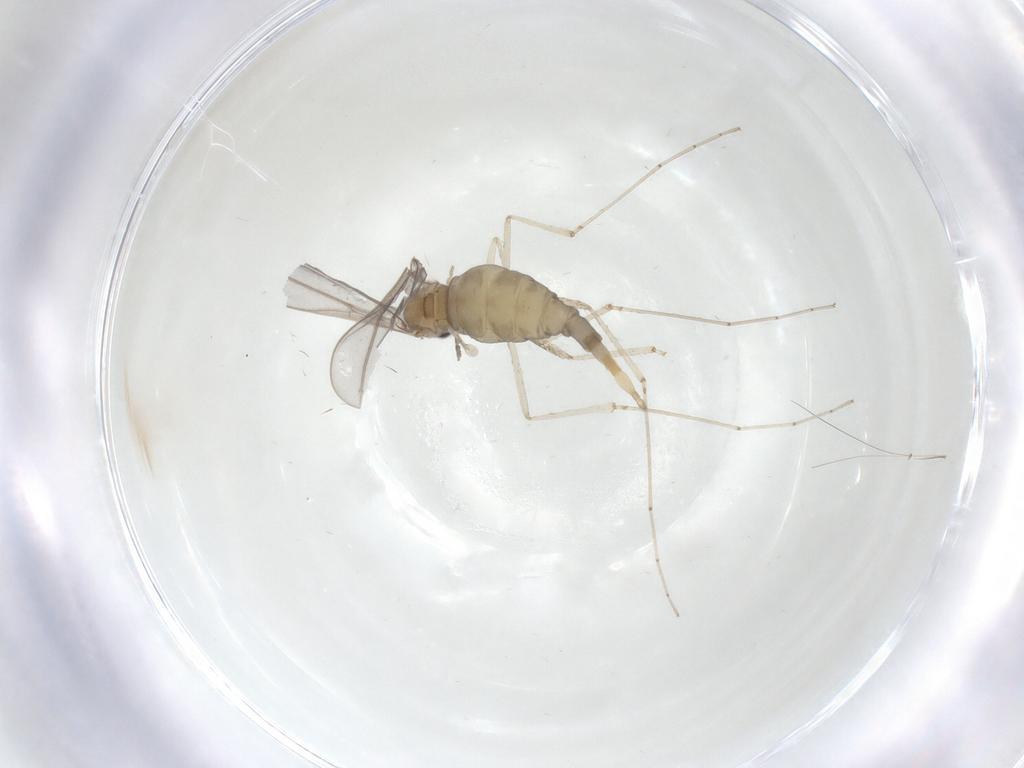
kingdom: Animalia
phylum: Arthropoda
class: Insecta
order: Diptera
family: Cecidomyiidae
